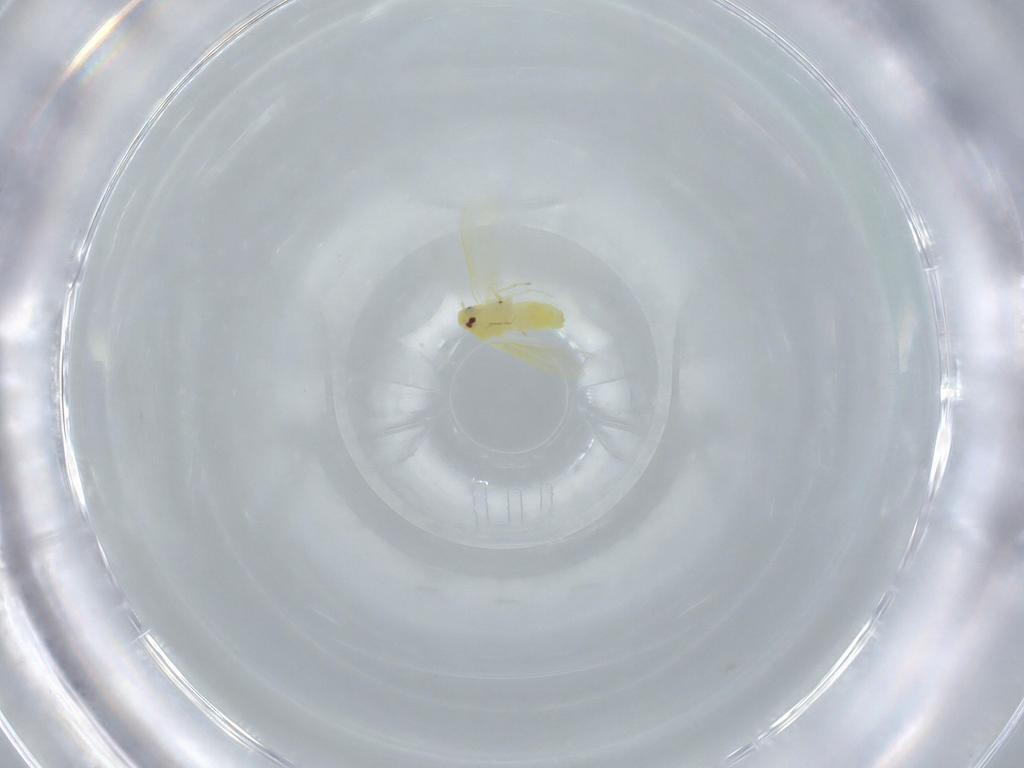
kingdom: Animalia
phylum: Arthropoda
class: Insecta
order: Hemiptera
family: Aleyrodidae
